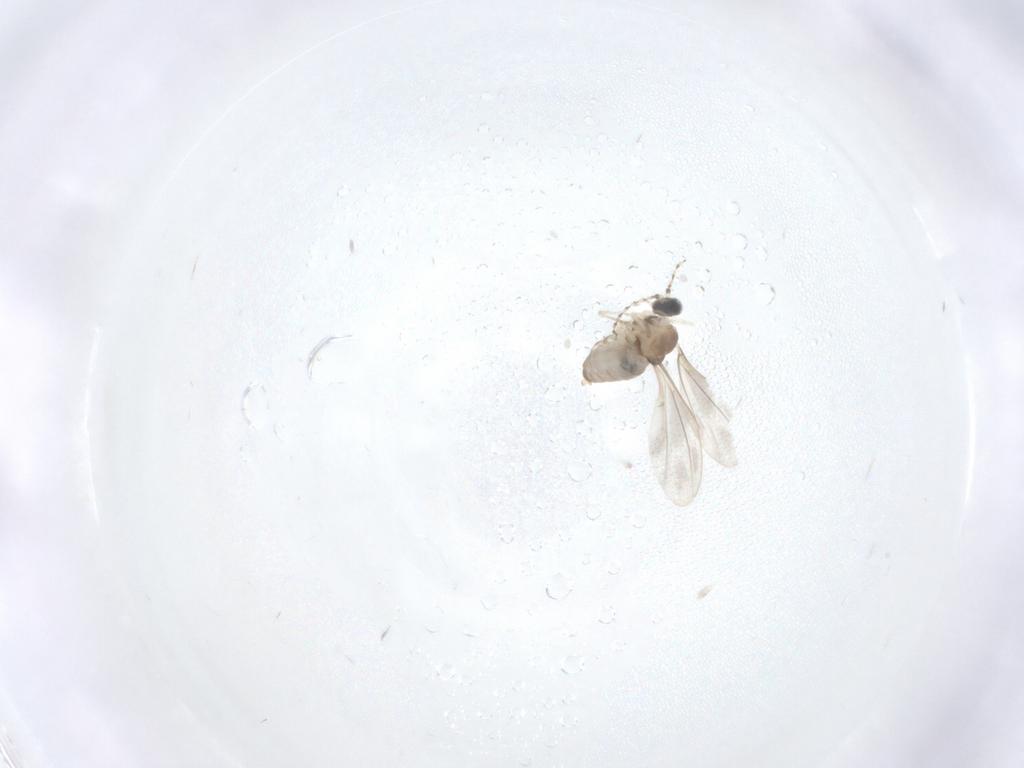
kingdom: Animalia
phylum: Arthropoda
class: Insecta
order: Diptera
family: Cecidomyiidae
